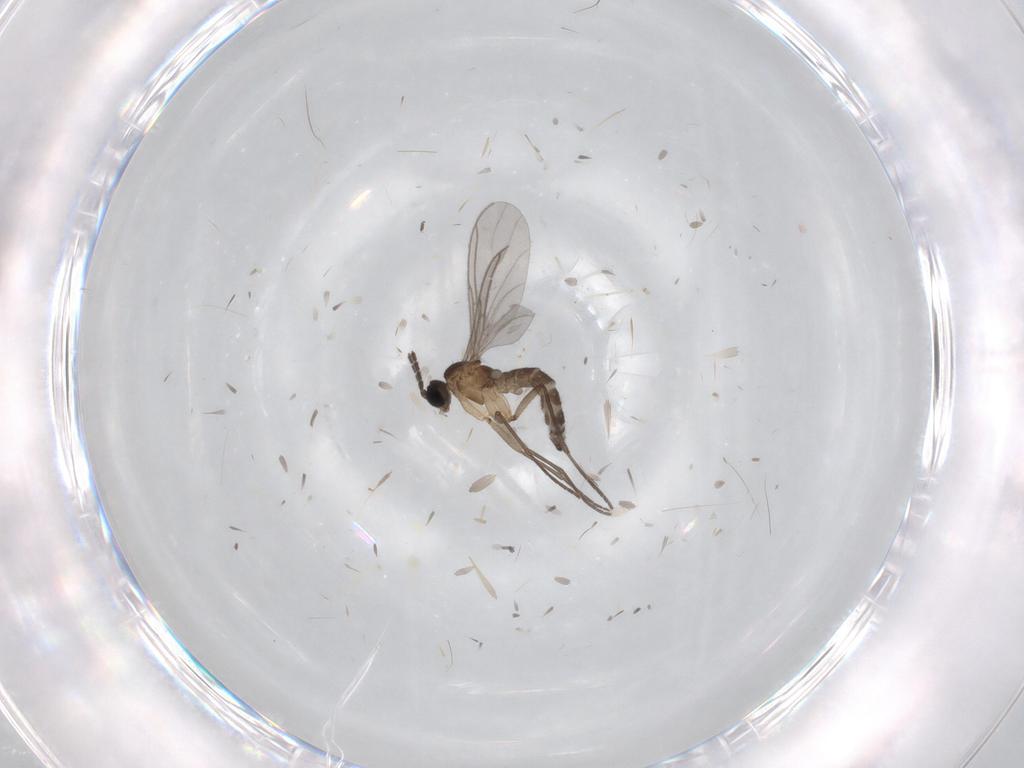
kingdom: Animalia
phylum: Arthropoda
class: Insecta
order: Diptera
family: Sciaridae
